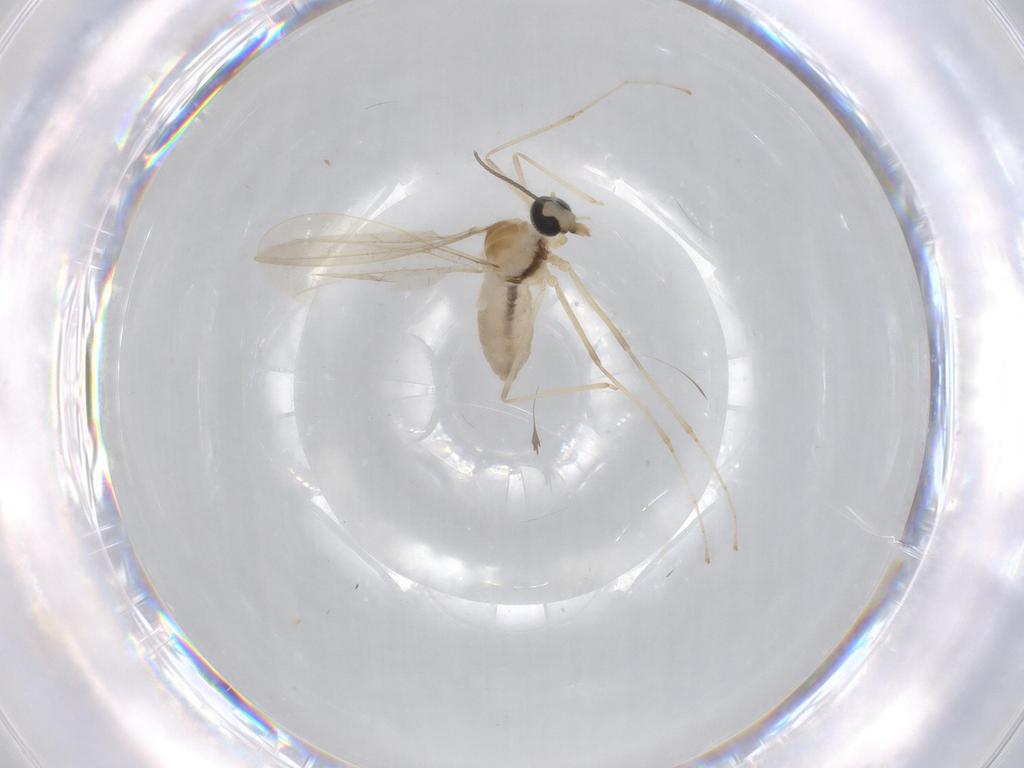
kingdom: Animalia
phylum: Arthropoda
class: Insecta
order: Diptera
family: Chironomidae
